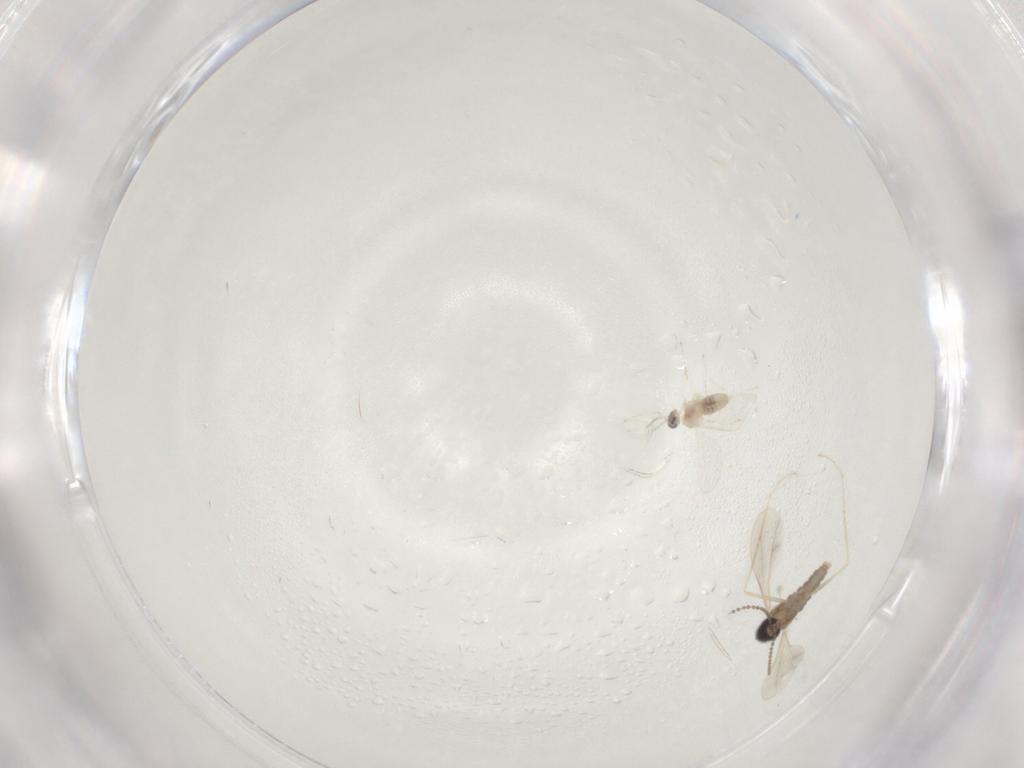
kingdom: Animalia
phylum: Arthropoda
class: Insecta
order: Diptera
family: Cecidomyiidae
